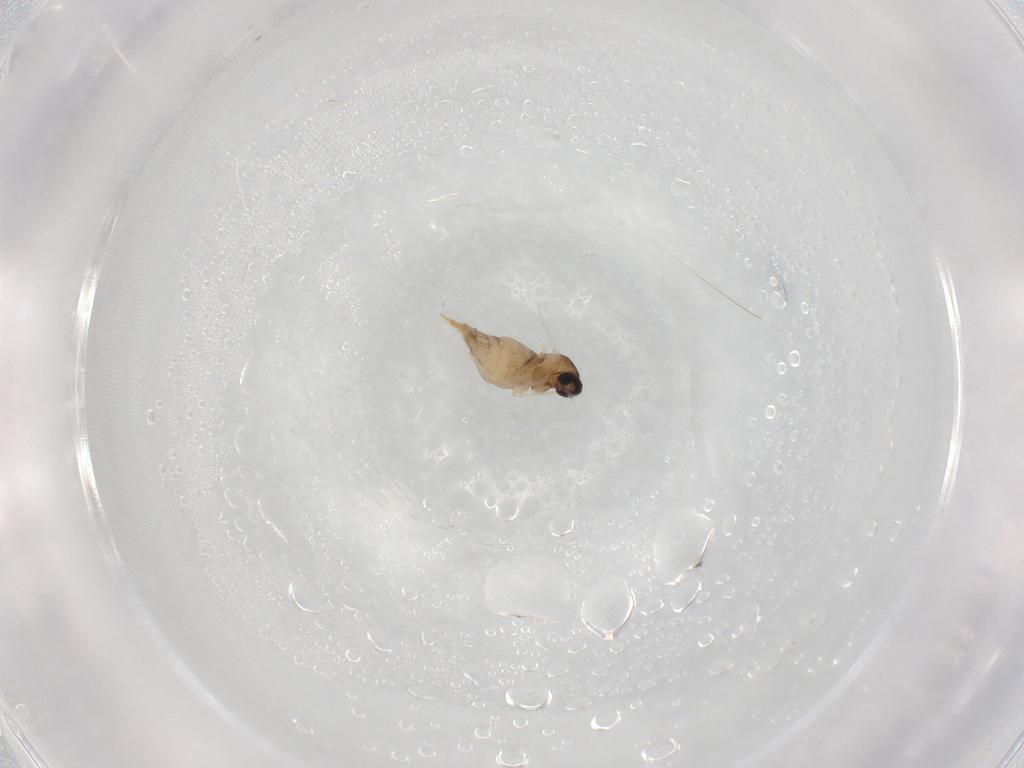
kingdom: Animalia
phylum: Arthropoda
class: Insecta
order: Diptera
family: Cecidomyiidae
